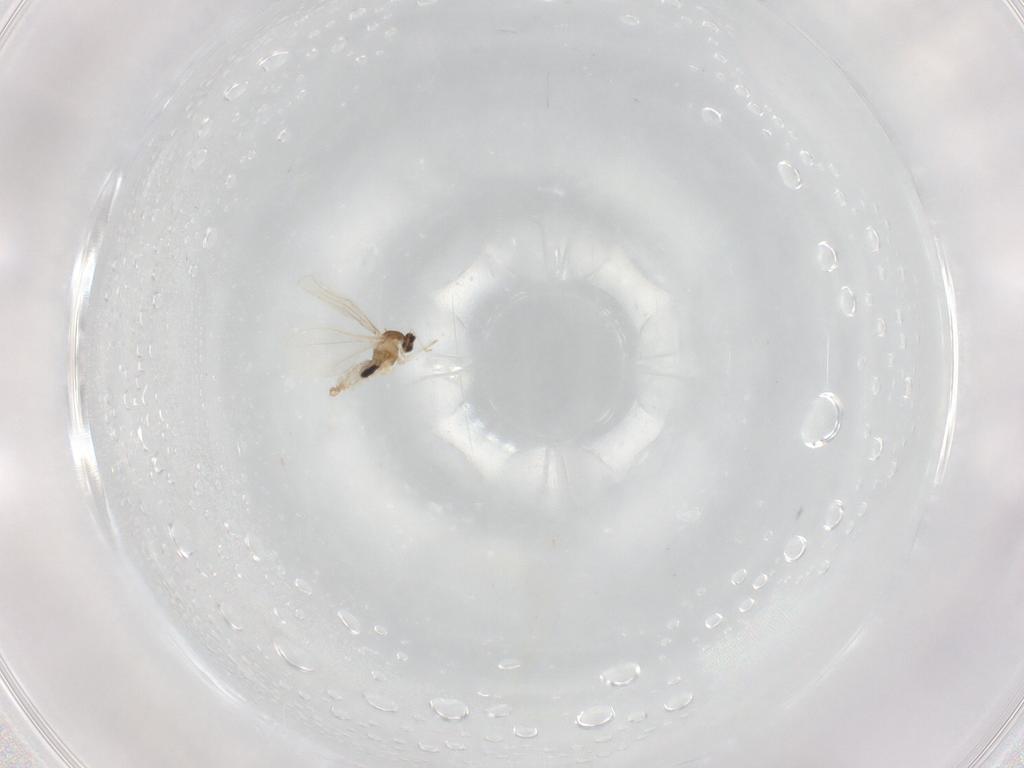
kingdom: Animalia
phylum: Arthropoda
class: Insecta
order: Diptera
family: Cecidomyiidae
